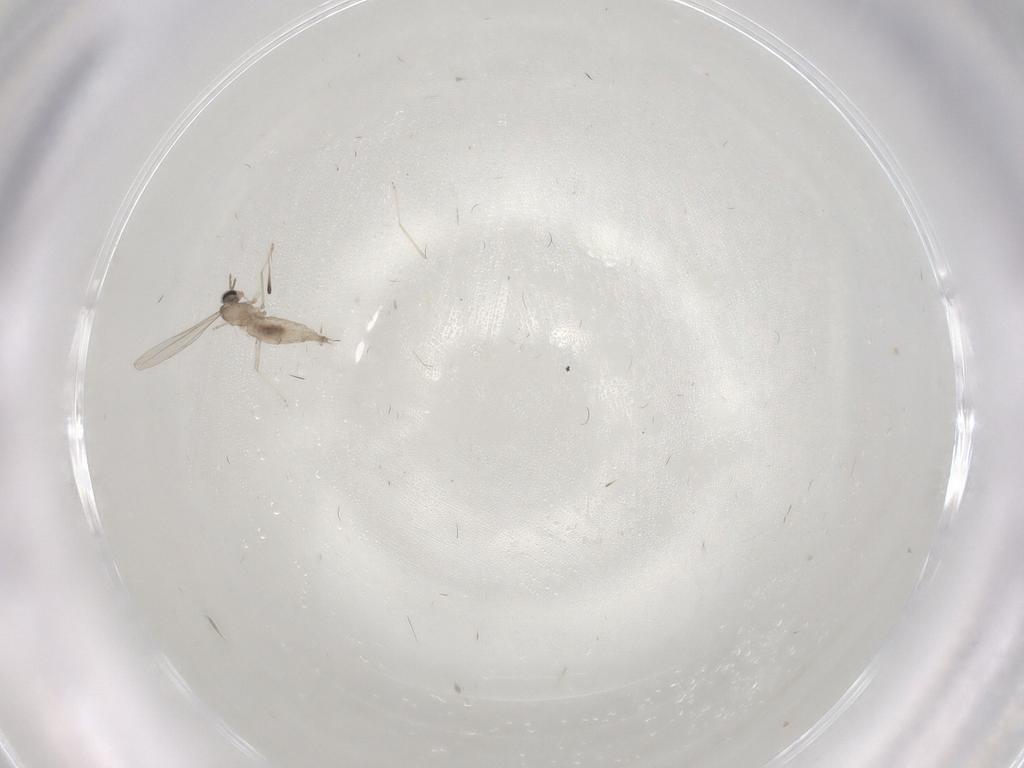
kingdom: Animalia
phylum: Arthropoda
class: Insecta
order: Diptera
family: Cecidomyiidae
